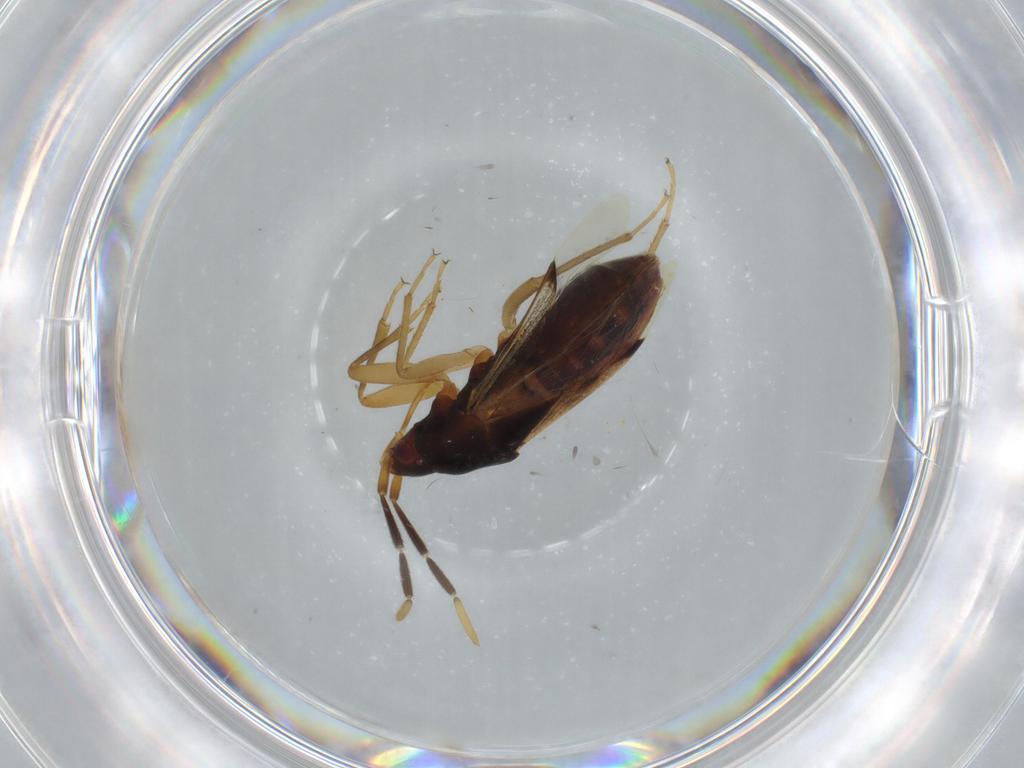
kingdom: Animalia
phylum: Arthropoda
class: Insecta
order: Hemiptera
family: Rhyparochromidae
